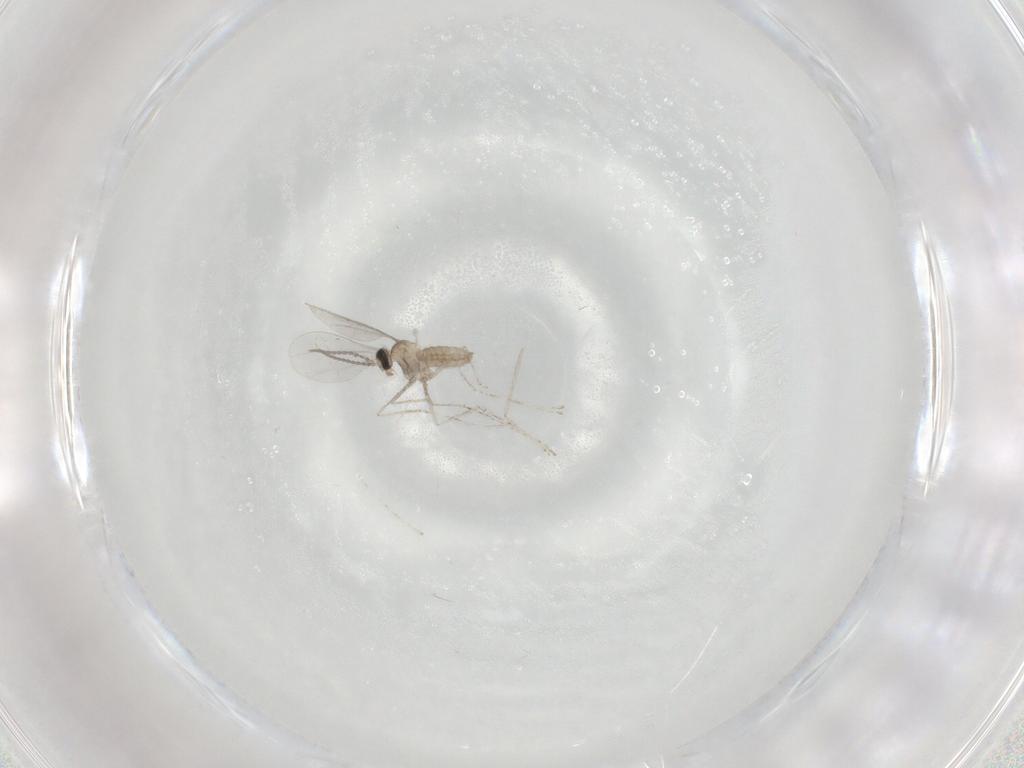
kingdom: Animalia
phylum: Arthropoda
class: Insecta
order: Diptera
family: Cecidomyiidae
